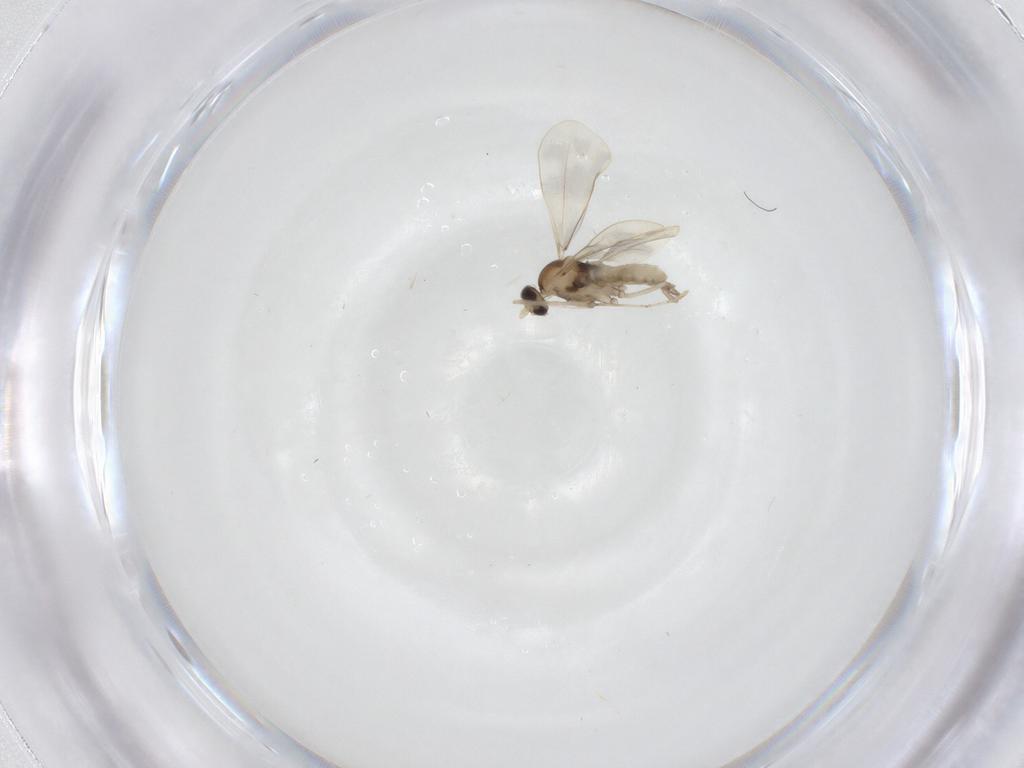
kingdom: Animalia
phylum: Arthropoda
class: Insecta
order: Diptera
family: Cecidomyiidae
